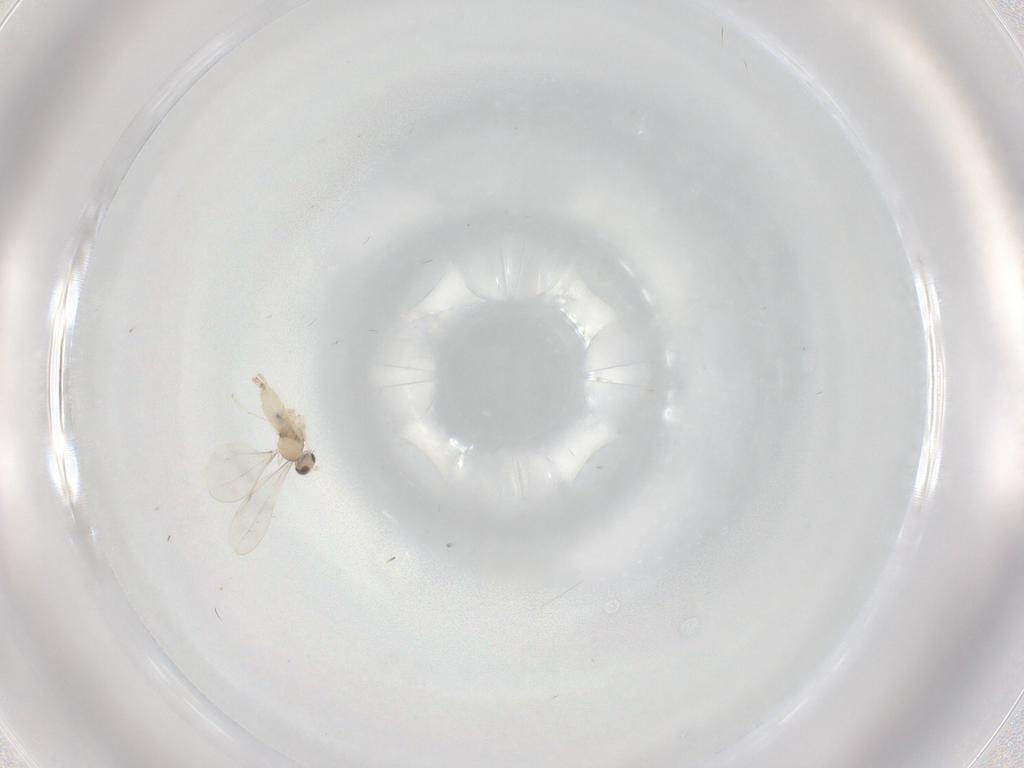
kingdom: Animalia
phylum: Arthropoda
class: Insecta
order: Diptera
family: Cecidomyiidae
